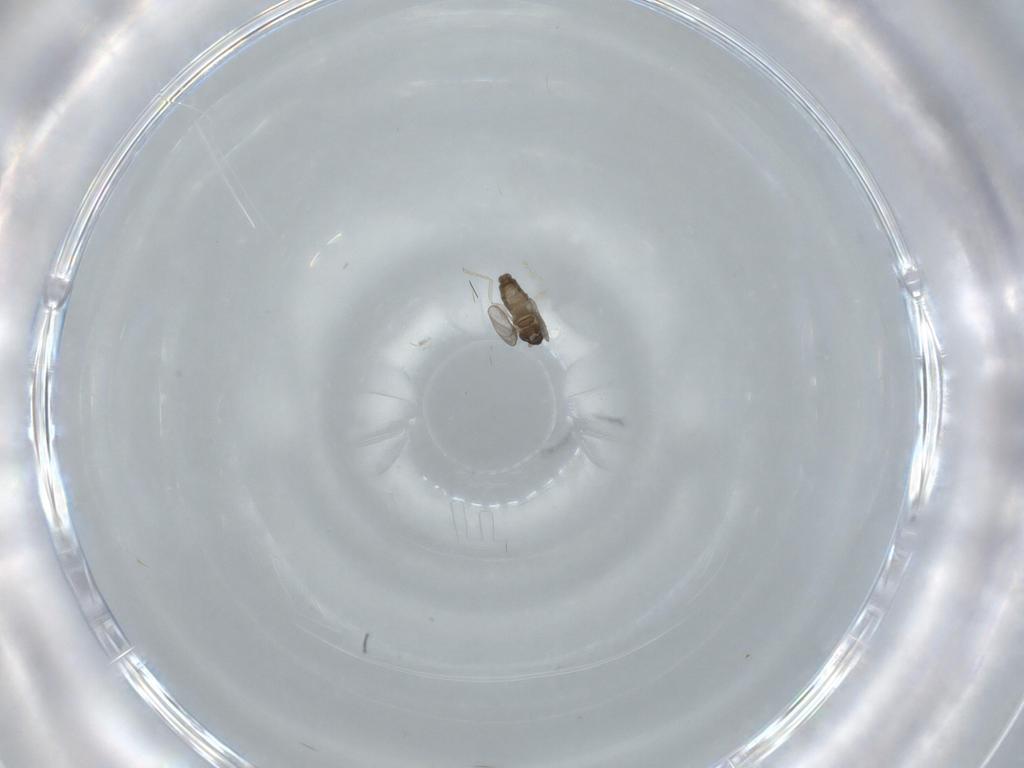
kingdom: Animalia
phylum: Arthropoda
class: Insecta
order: Diptera
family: Cecidomyiidae
